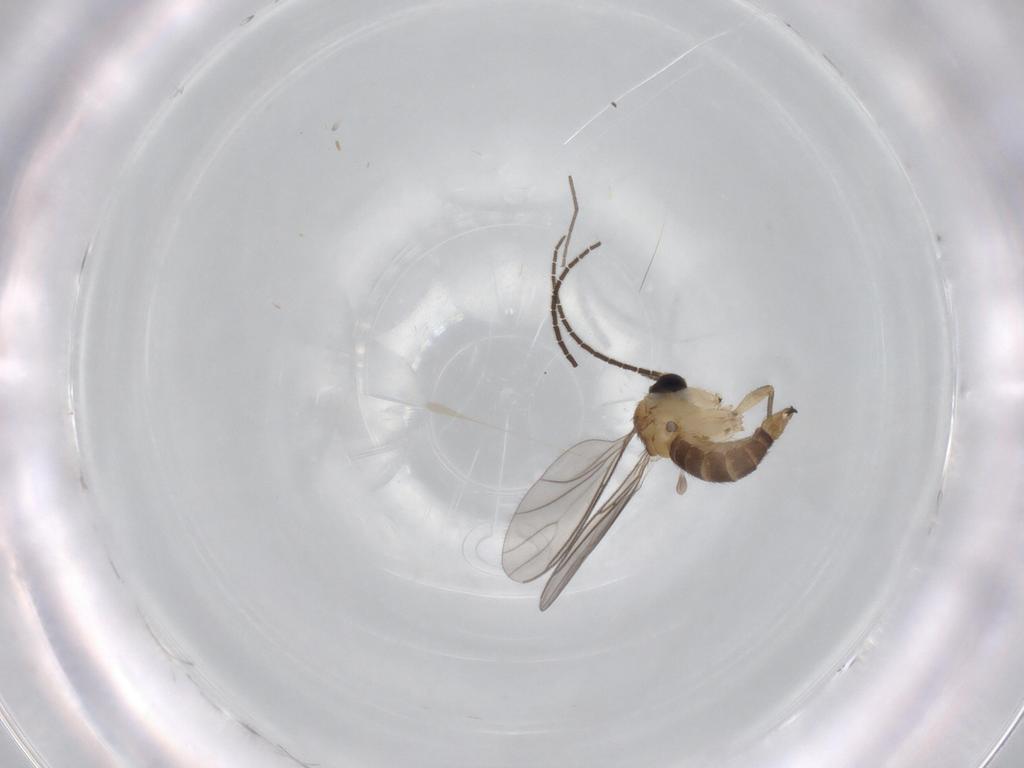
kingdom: Animalia
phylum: Arthropoda
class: Insecta
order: Diptera
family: Sciaridae
